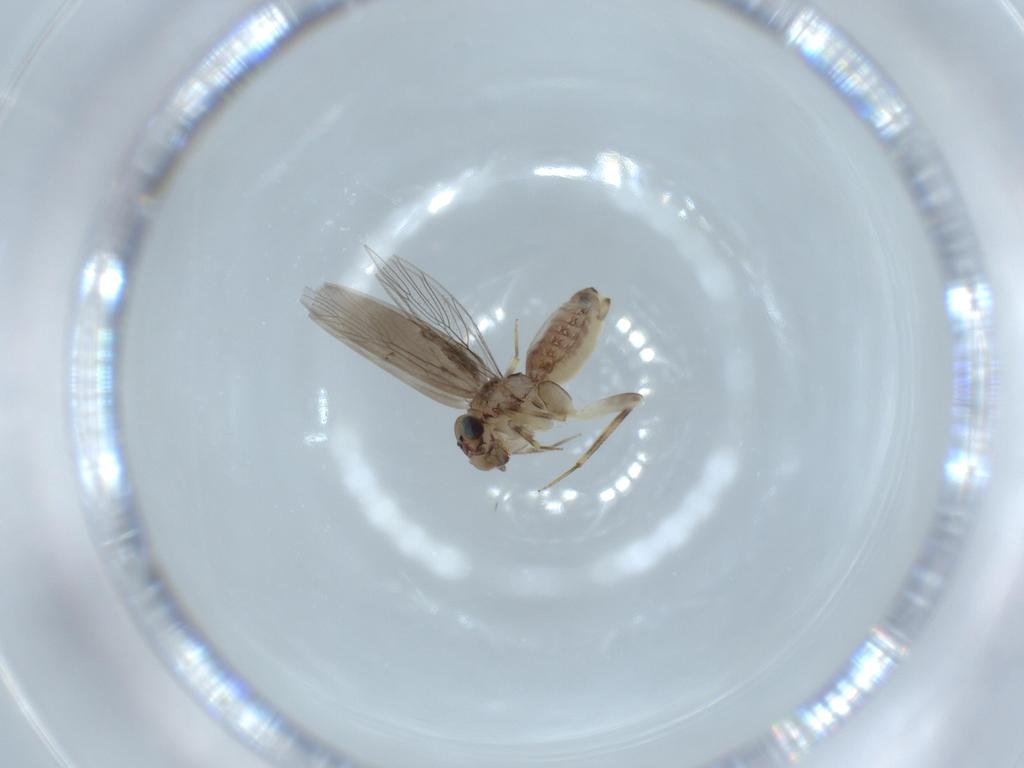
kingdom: Animalia
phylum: Arthropoda
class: Insecta
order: Psocodea
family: Lepidopsocidae
